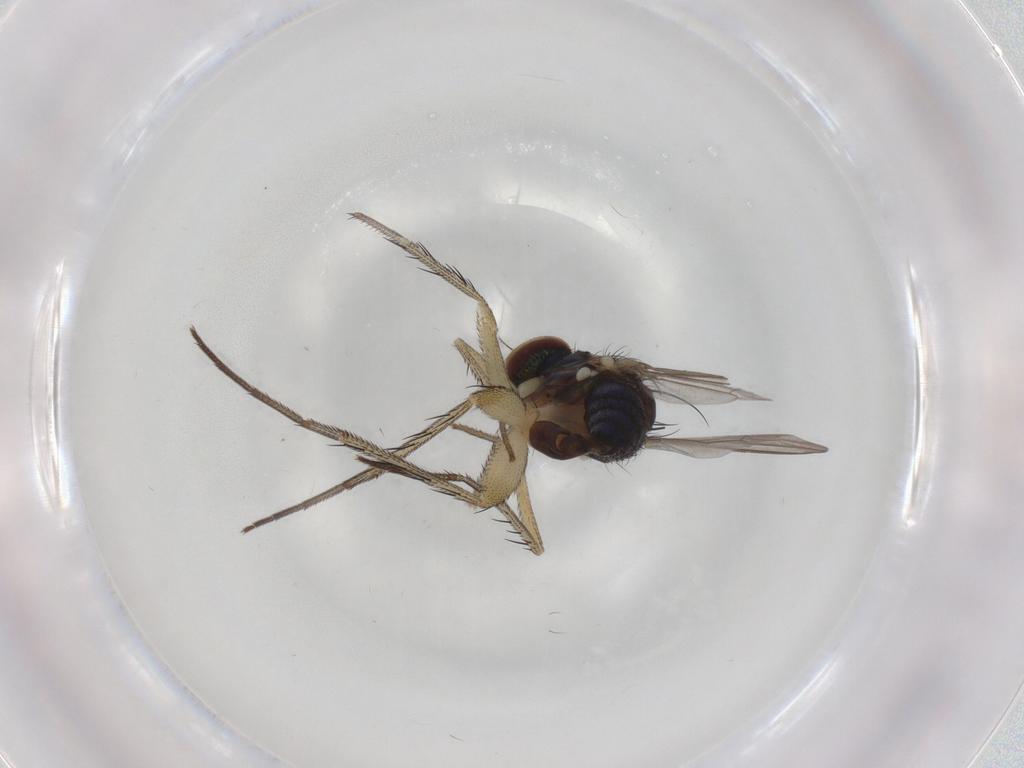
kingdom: Animalia
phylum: Arthropoda
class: Insecta
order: Diptera
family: Dolichopodidae
